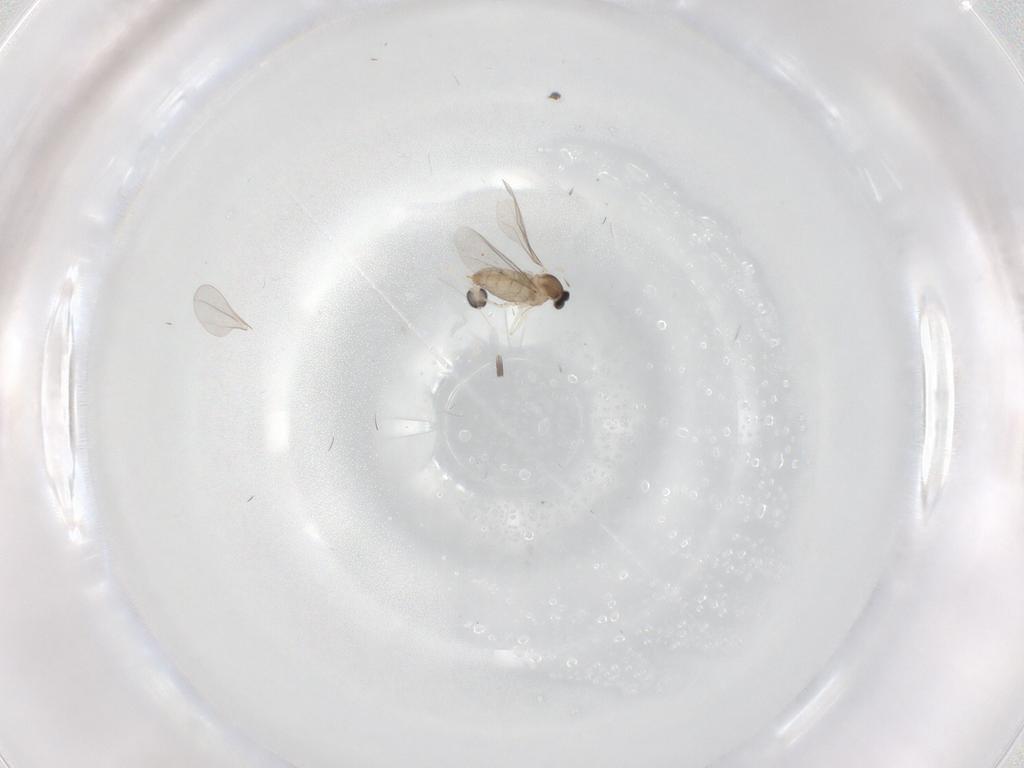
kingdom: Animalia
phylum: Arthropoda
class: Insecta
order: Diptera
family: Cecidomyiidae
